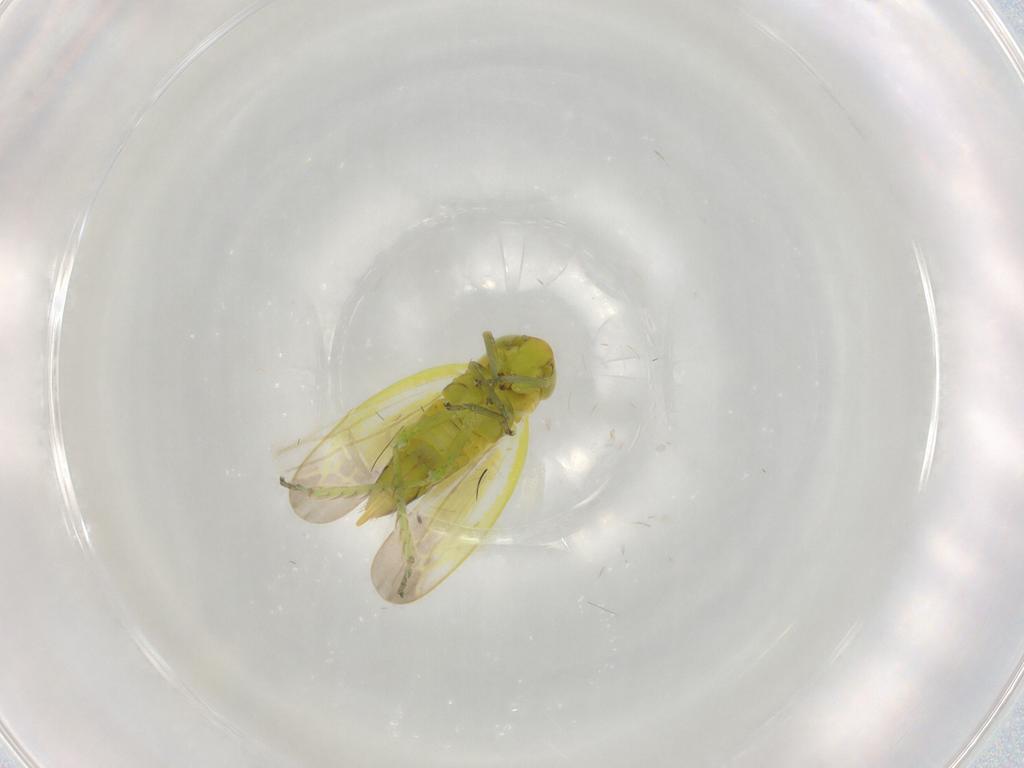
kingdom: Animalia
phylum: Arthropoda
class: Insecta
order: Hemiptera
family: Cicadellidae
